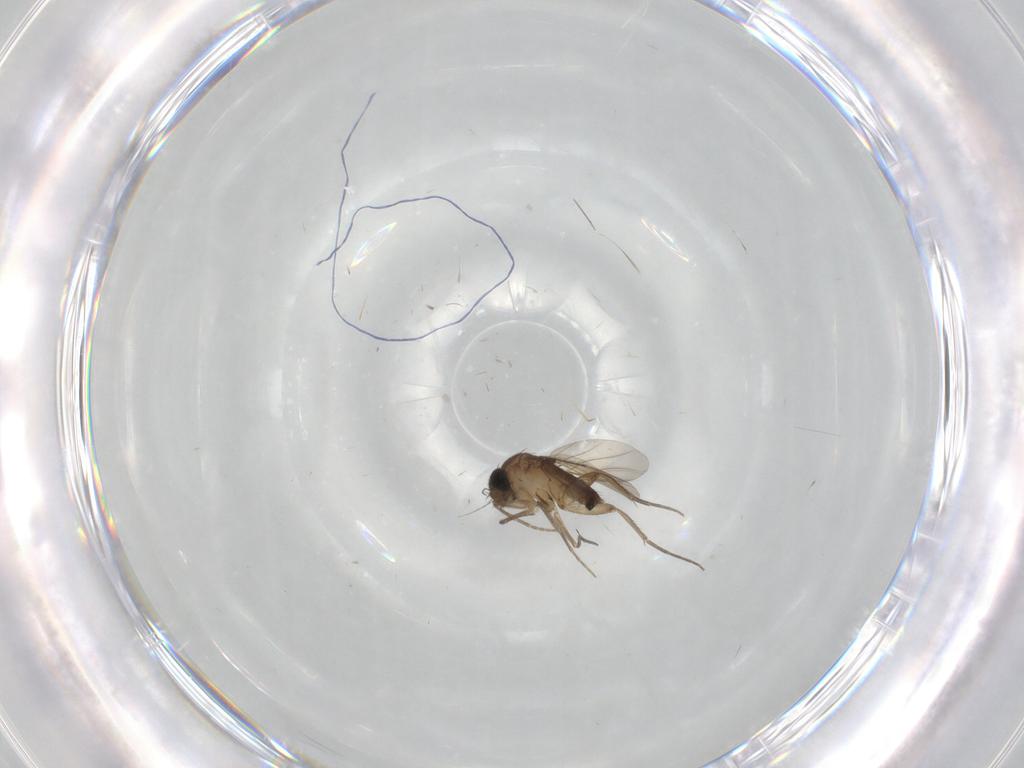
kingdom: Animalia
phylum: Arthropoda
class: Insecta
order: Diptera
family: Phoridae
